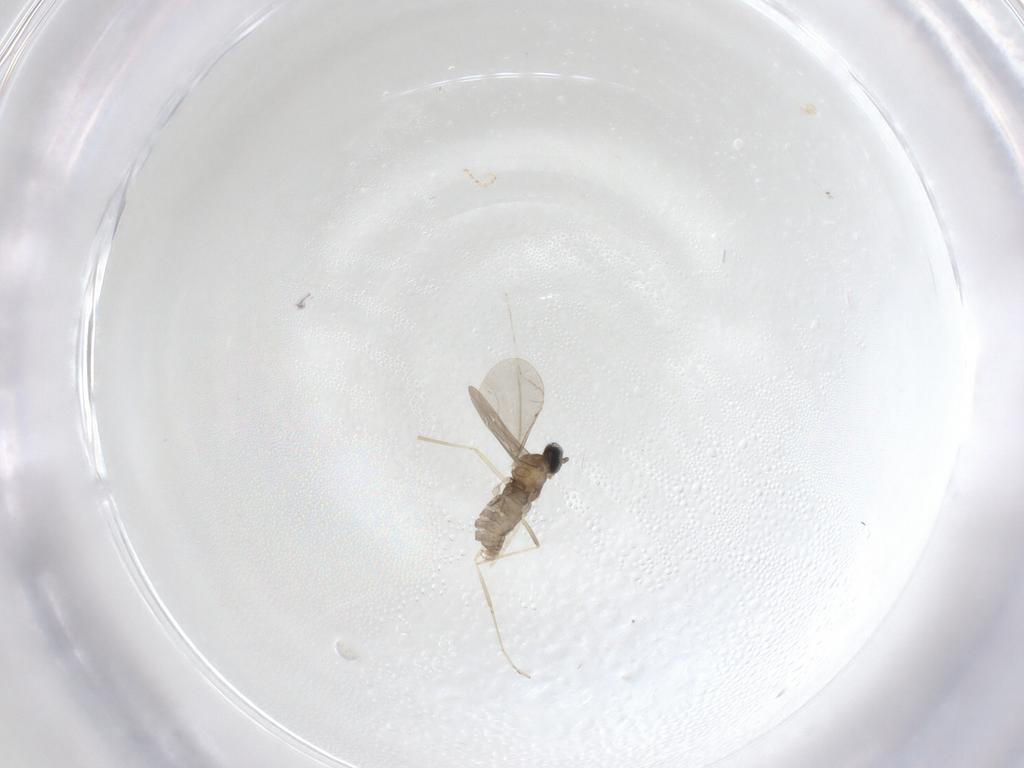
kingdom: Animalia
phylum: Arthropoda
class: Insecta
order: Diptera
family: Cecidomyiidae
